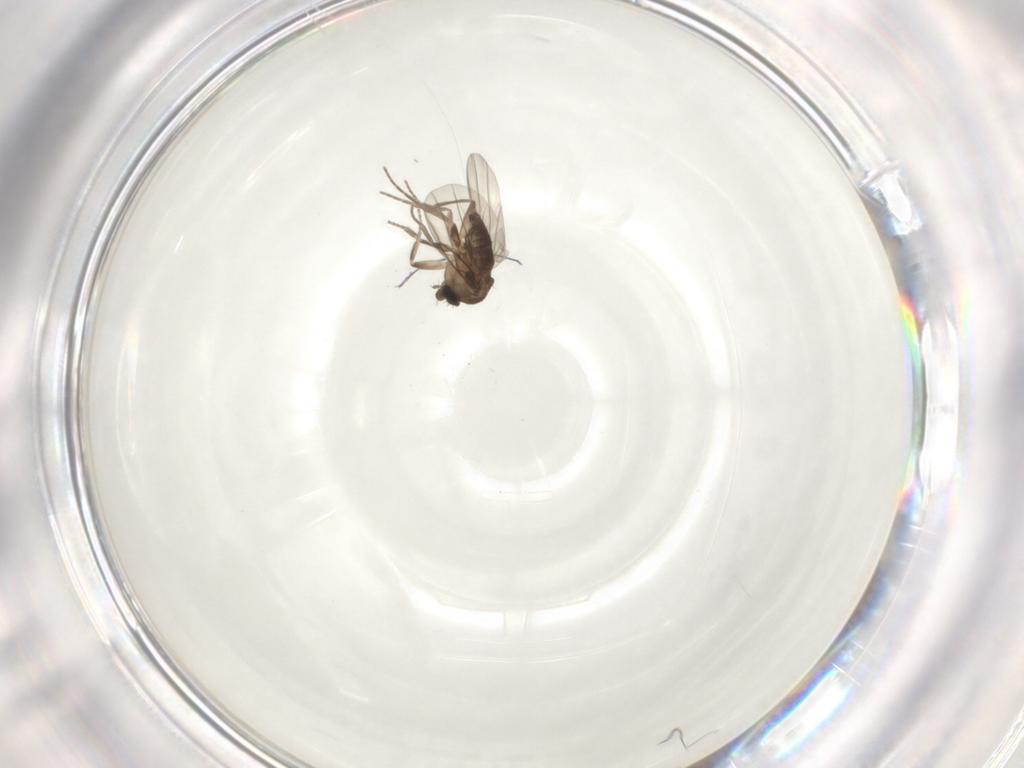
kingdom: Animalia
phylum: Arthropoda
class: Insecta
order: Diptera
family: Phoridae
